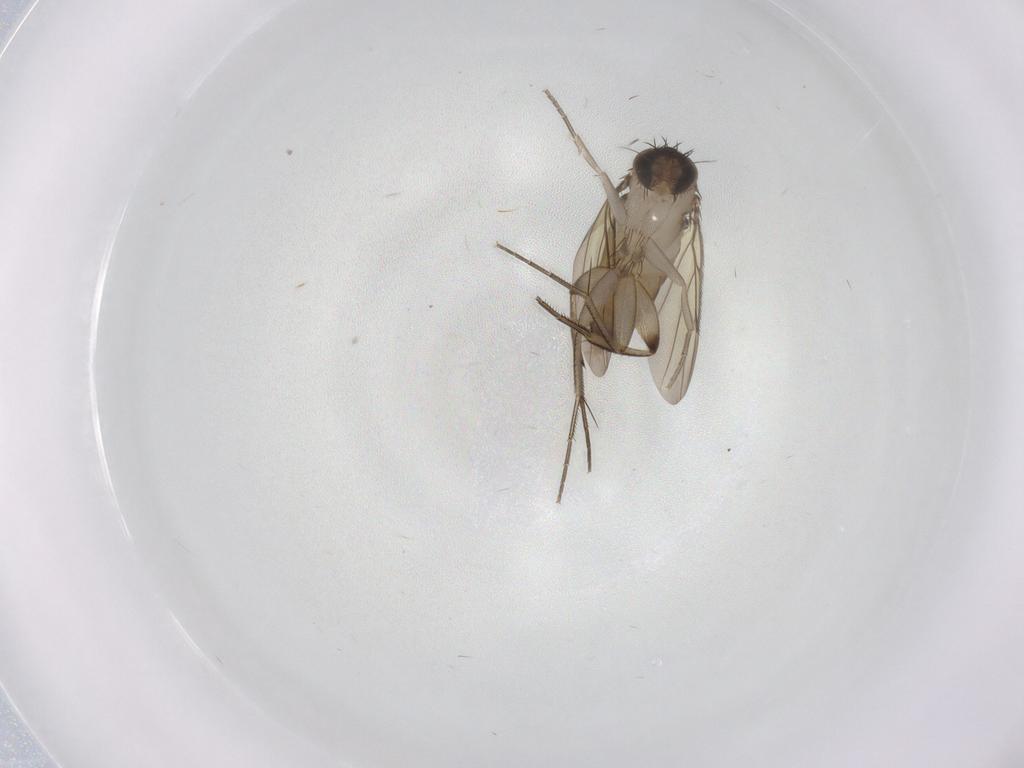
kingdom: Animalia
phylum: Arthropoda
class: Insecta
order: Diptera
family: Phoridae
